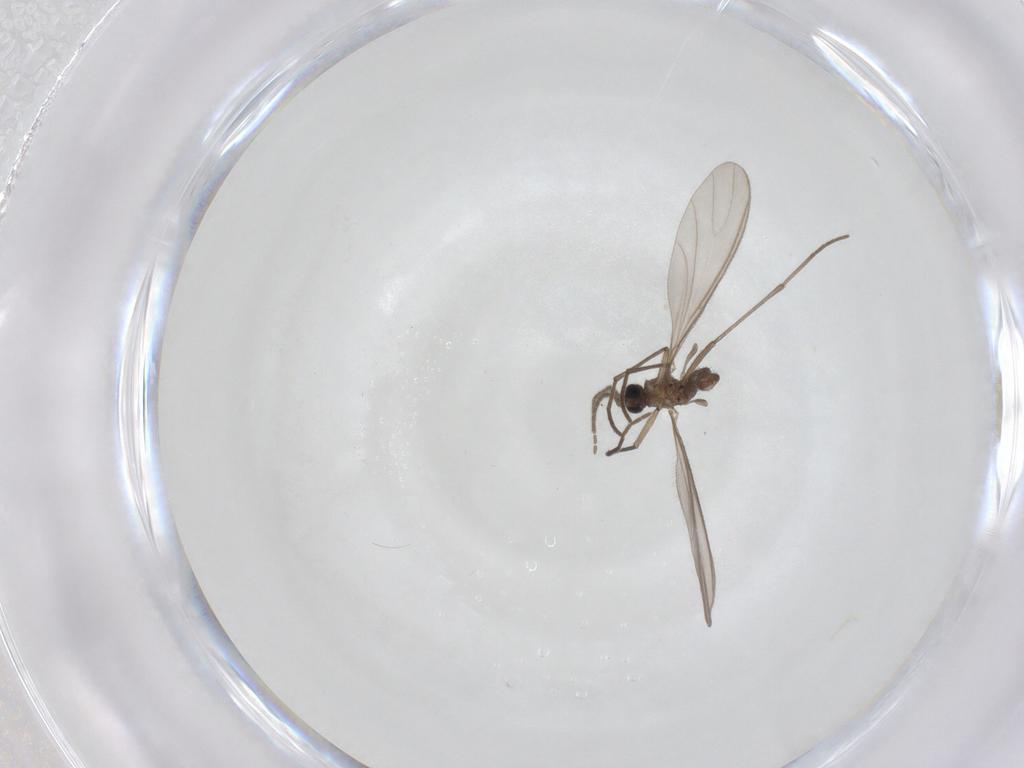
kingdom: Animalia
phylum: Arthropoda
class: Insecta
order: Diptera
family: Sciaridae
